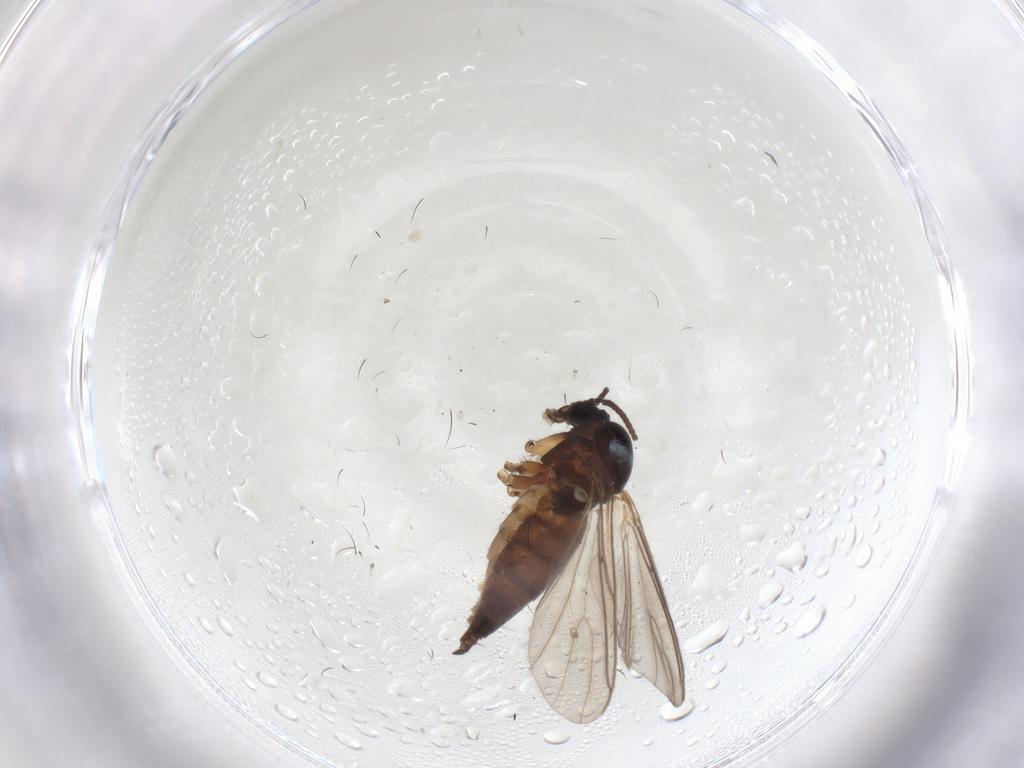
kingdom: Animalia
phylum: Arthropoda
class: Insecta
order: Diptera
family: Sciaridae
